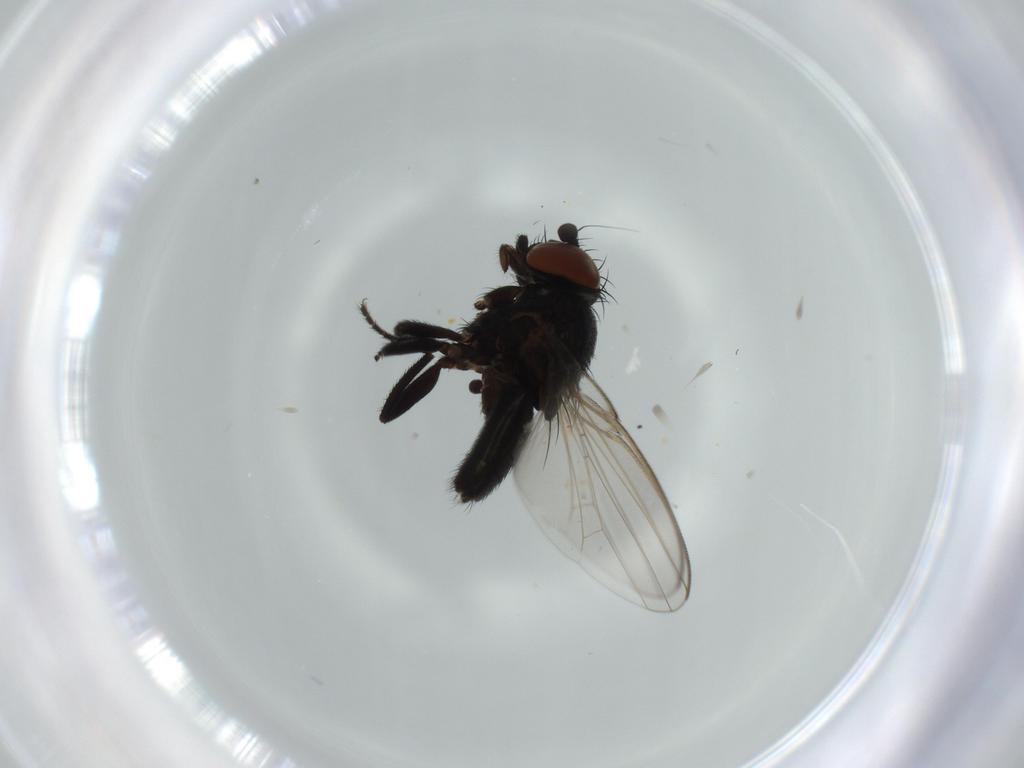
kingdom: Animalia
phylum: Arthropoda
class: Insecta
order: Diptera
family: Milichiidae
